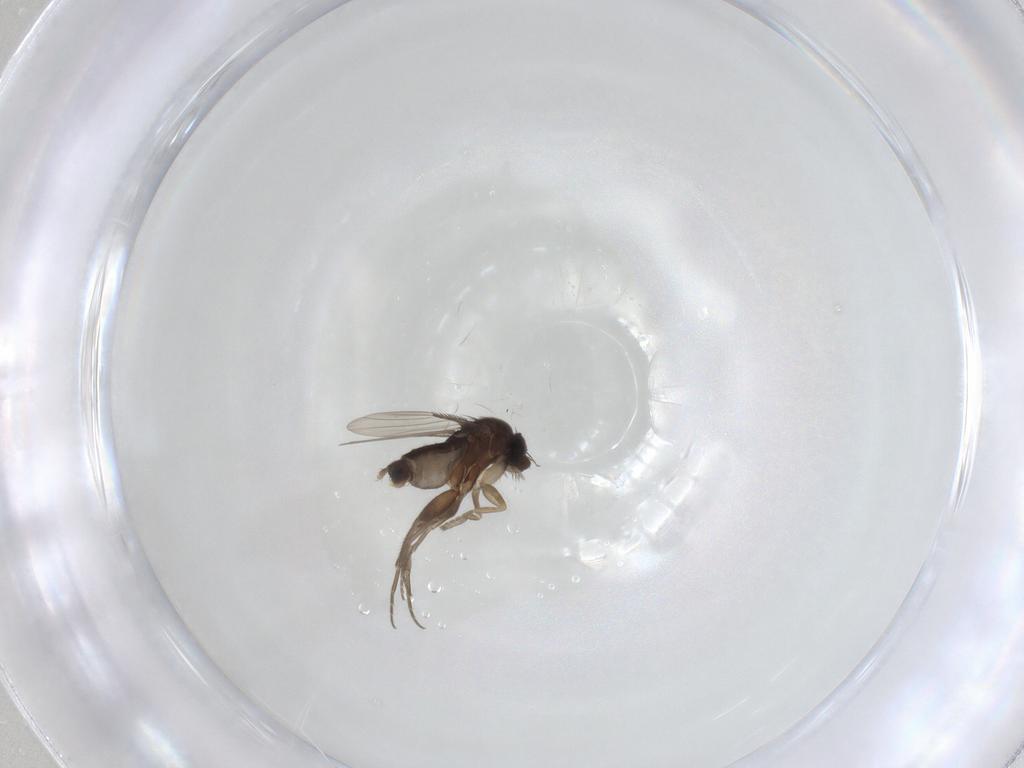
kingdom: Animalia
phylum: Arthropoda
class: Insecta
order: Diptera
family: Phoridae
